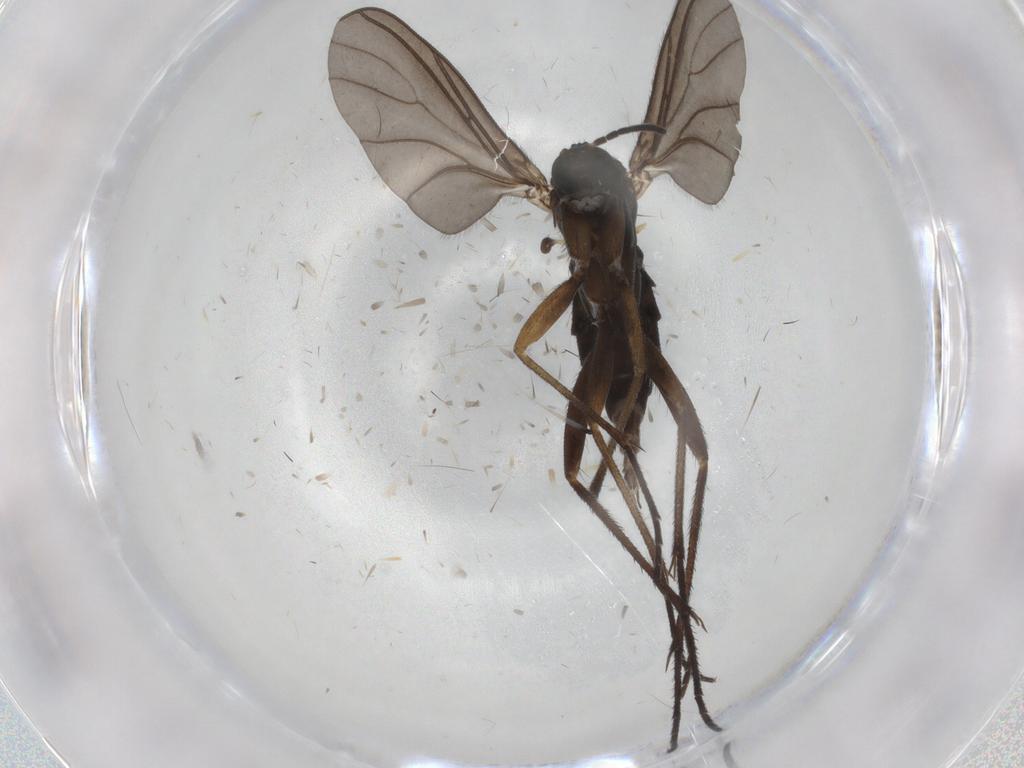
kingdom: Animalia
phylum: Arthropoda
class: Insecta
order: Diptera
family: Sciaridae
